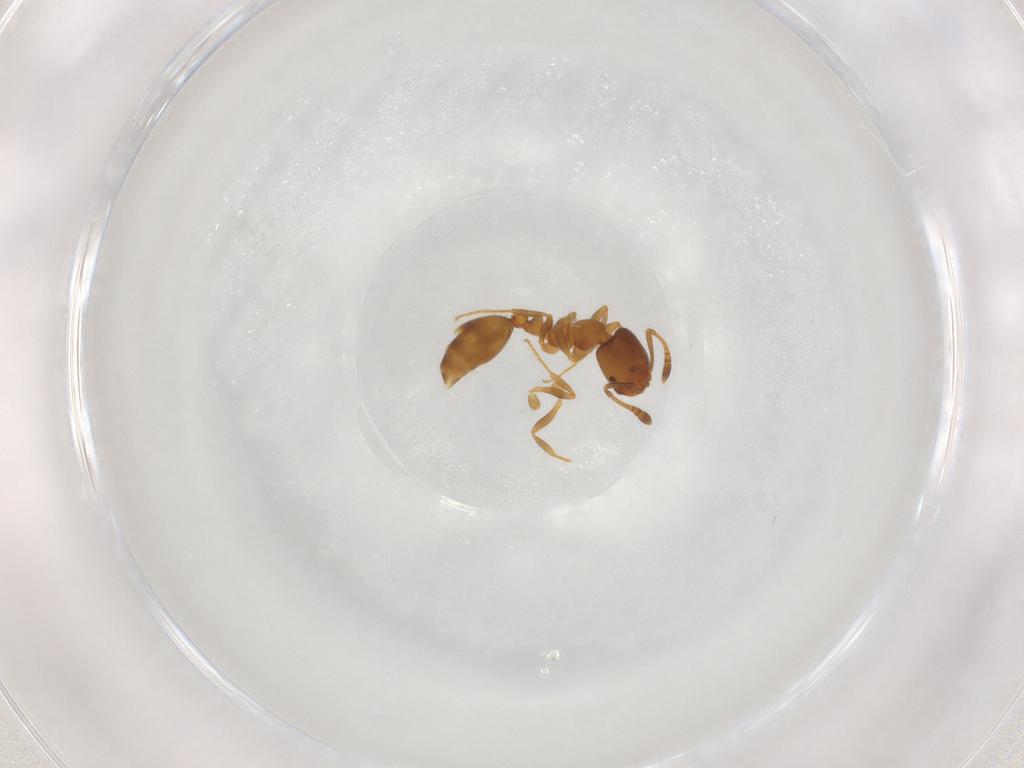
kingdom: Animalia
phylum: Arthropoda
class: Insecta
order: Hymenoptera
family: Formicidae
